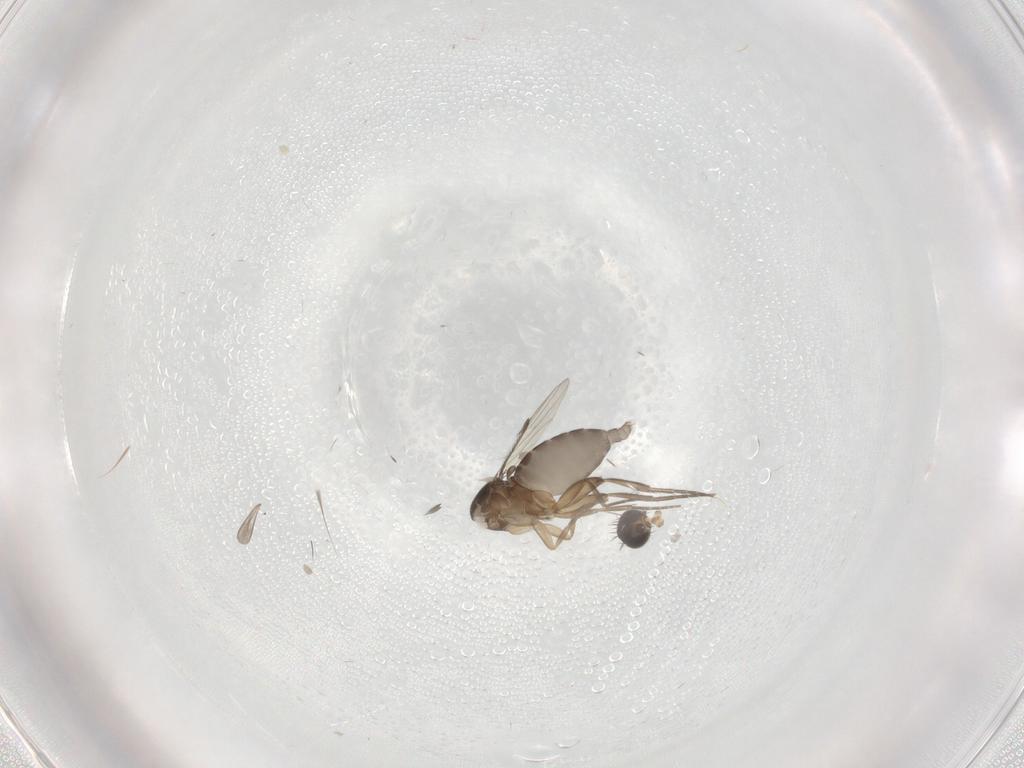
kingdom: Animalia
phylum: Arthropoda
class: Insecta
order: Diptera
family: Phoridae
